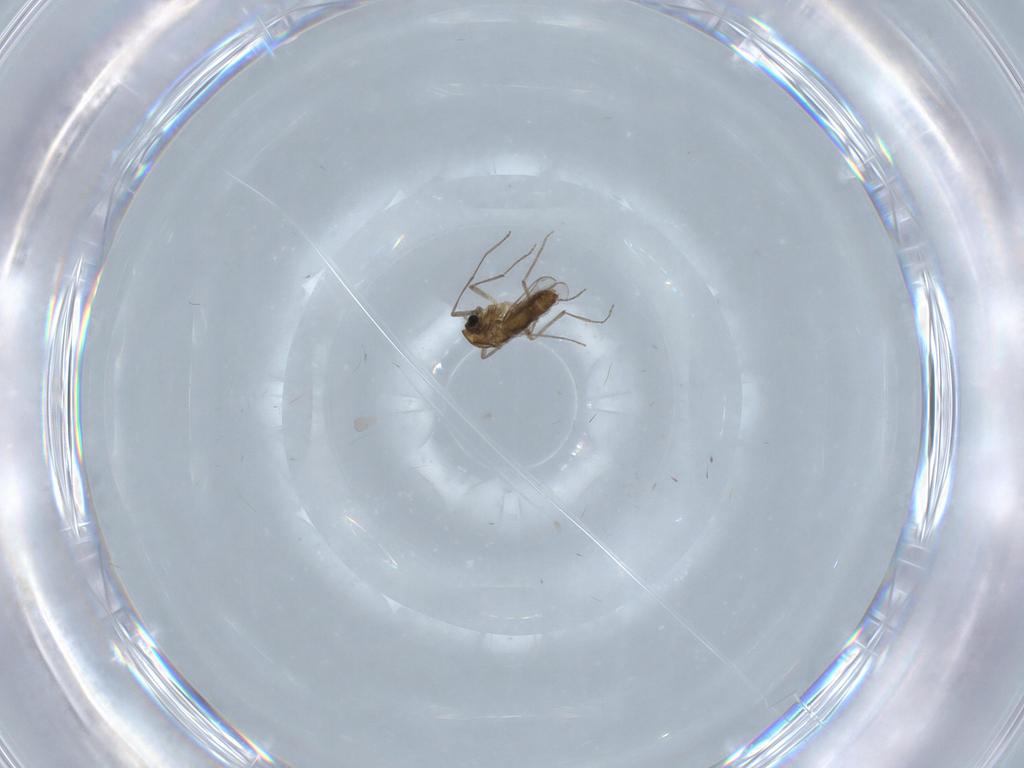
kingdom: Animalia
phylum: Arthropoda
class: Insecta
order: Diptera
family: Chironomidae
